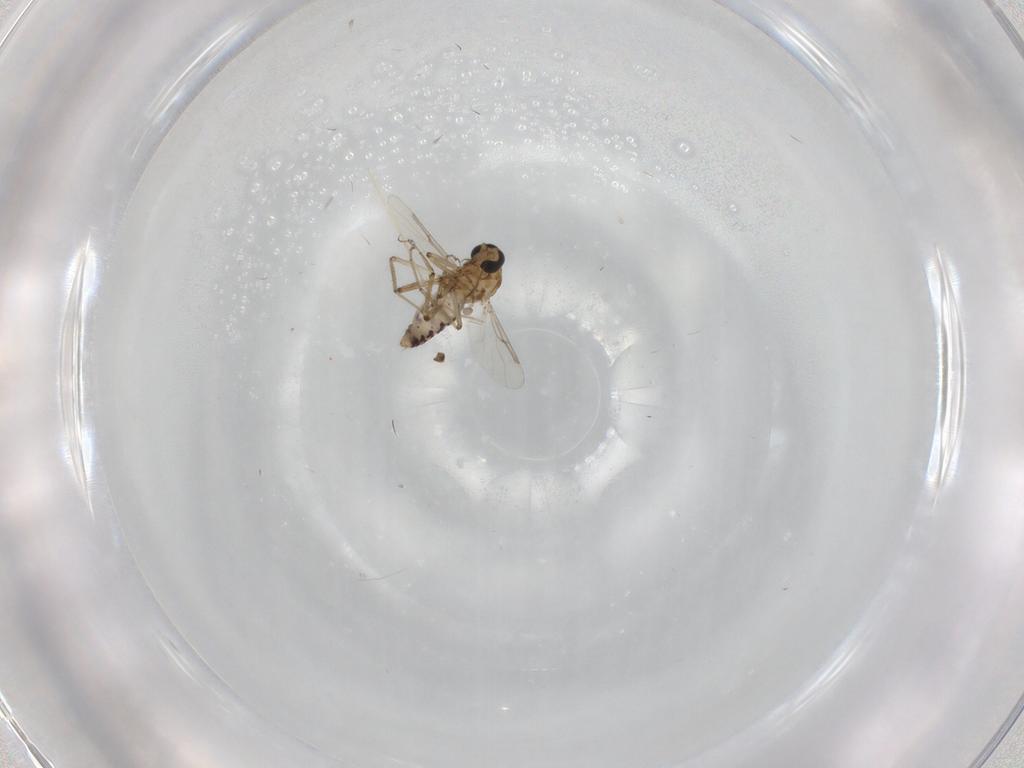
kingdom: Animalia
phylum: Arthropoda
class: Insecta
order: Diptera
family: Ceratopogonidae
